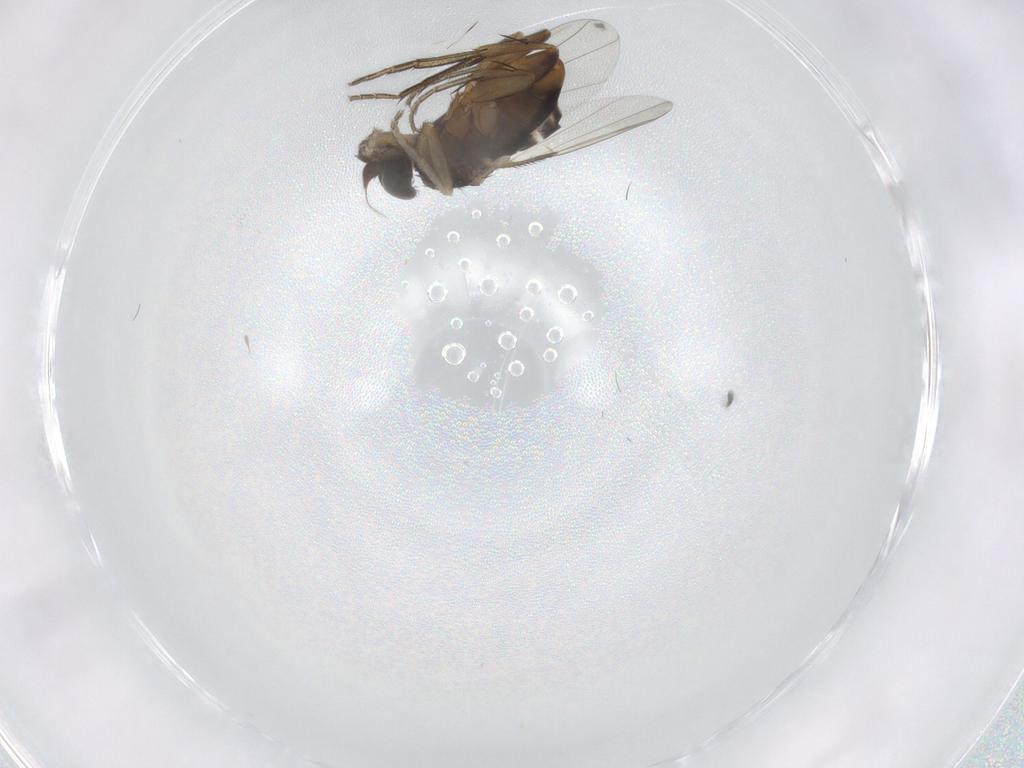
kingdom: Animalia
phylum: Arthropoda
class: Insecta
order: Diptera
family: Phoridae
